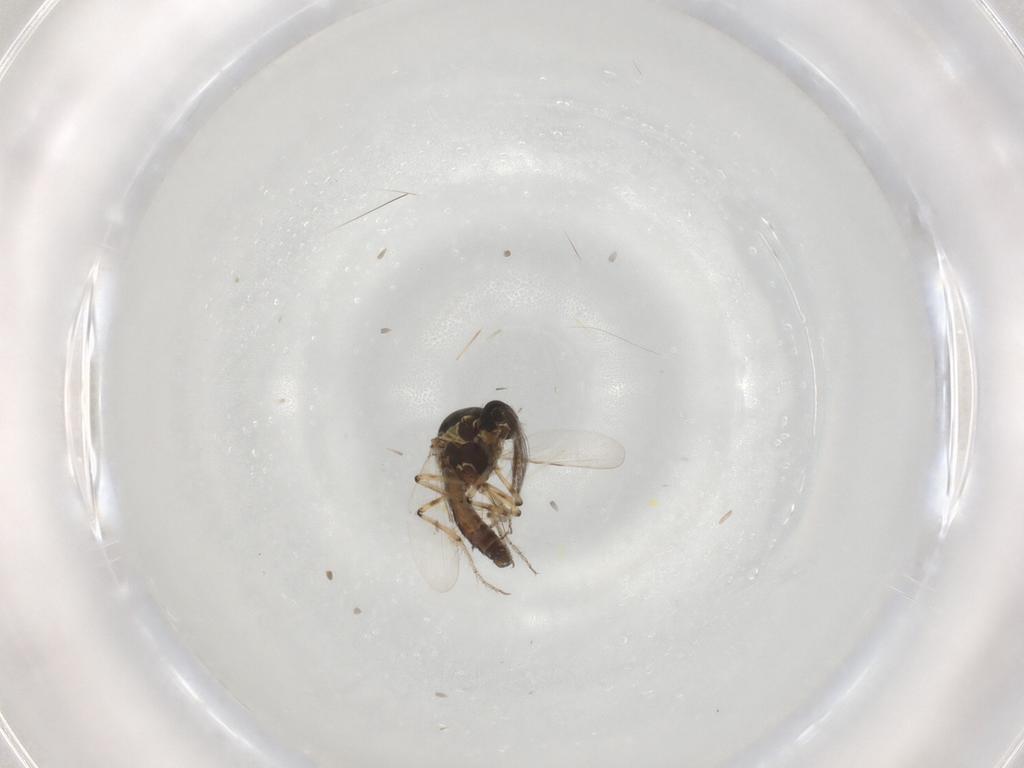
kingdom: Animalia
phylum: Arthropoda
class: Insecta
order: Diptera
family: Ceratopogonidae
